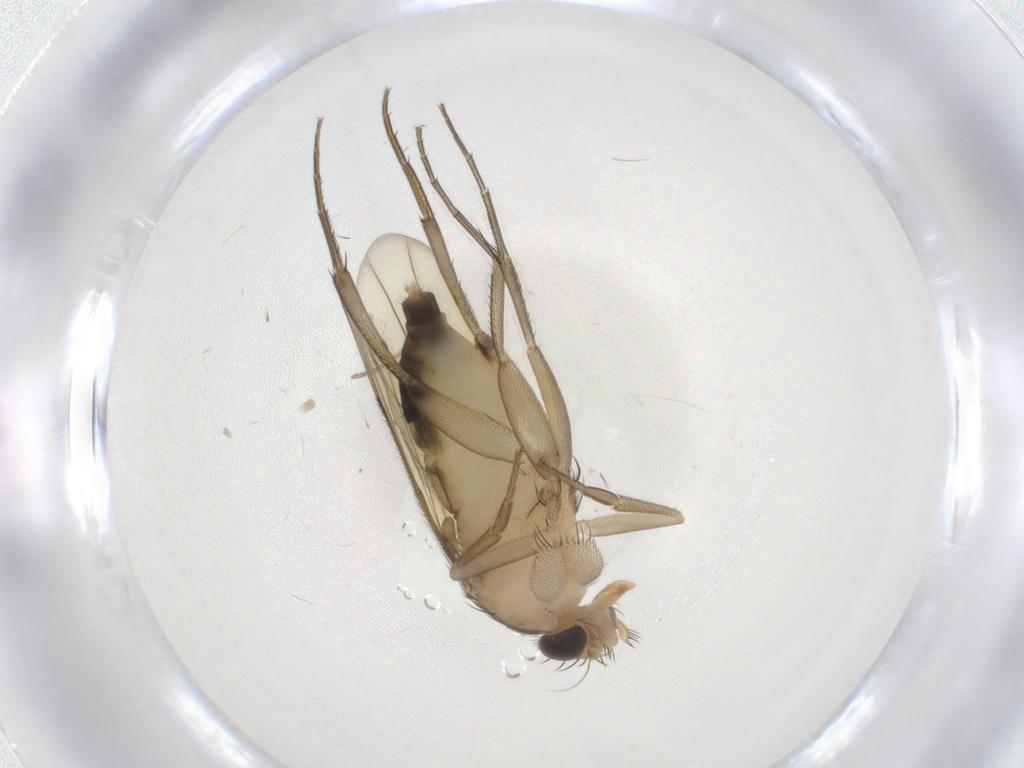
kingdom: Animalia
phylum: Arthropoda
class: Insecta
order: Diptera
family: Phoridae
